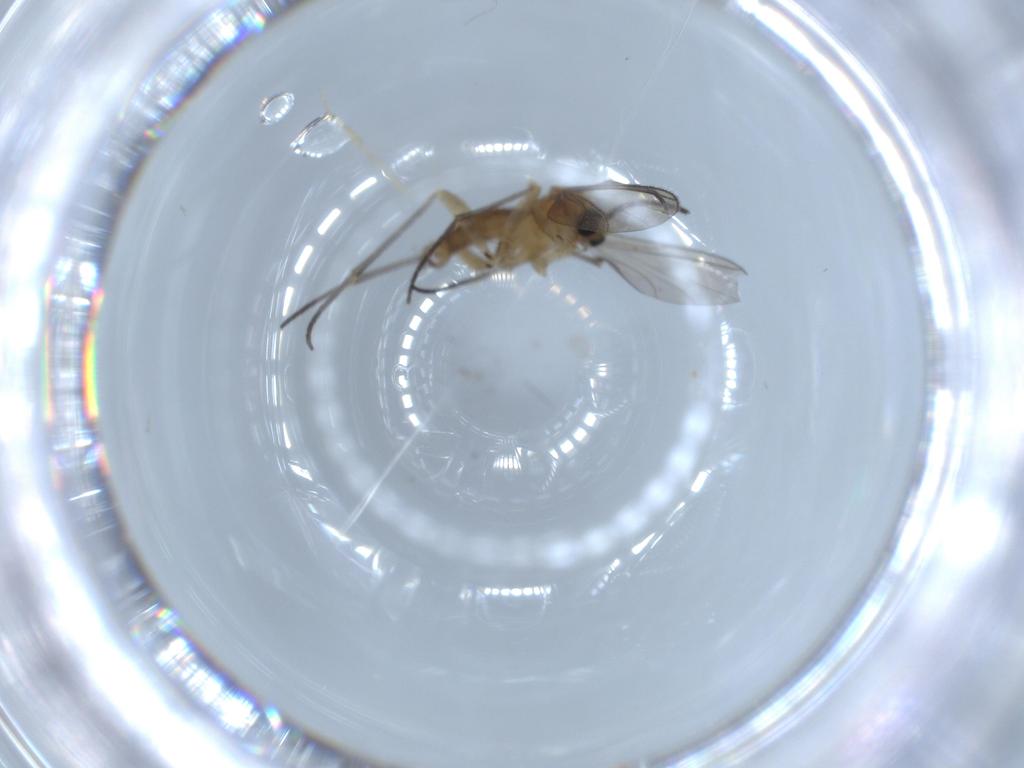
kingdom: Animalia
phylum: Arthropoda
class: Insecta
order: Diptera
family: Sciaridae
